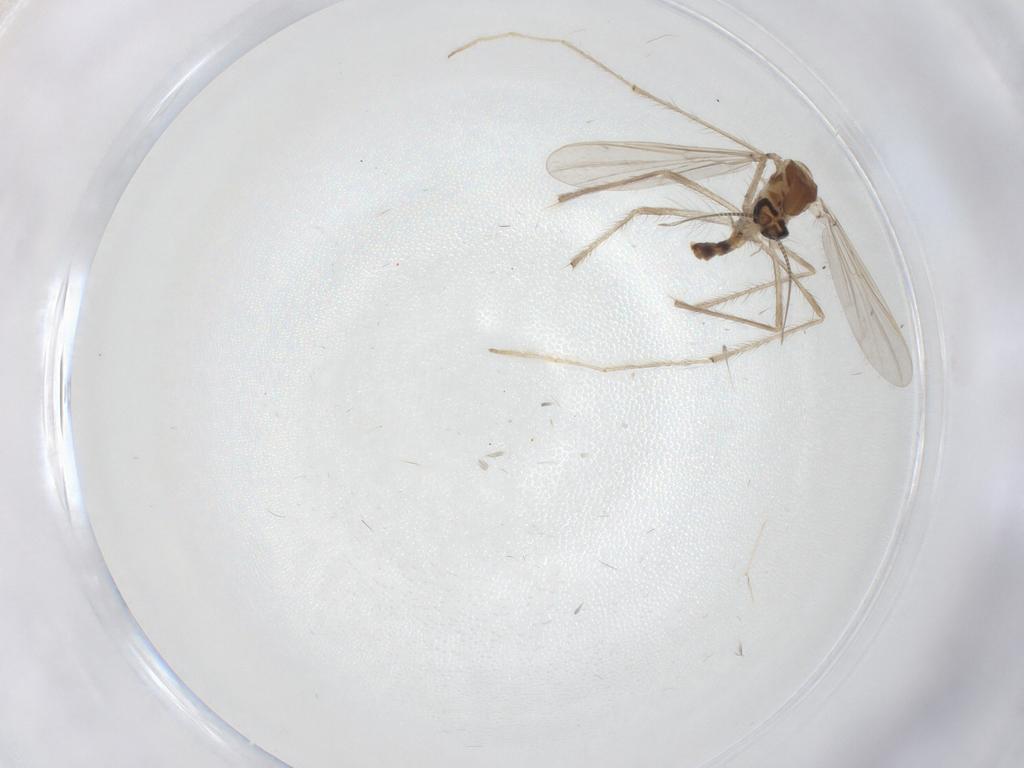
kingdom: Animalia
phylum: Arthropoda
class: Insecta
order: Diptera
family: Chironomidae
